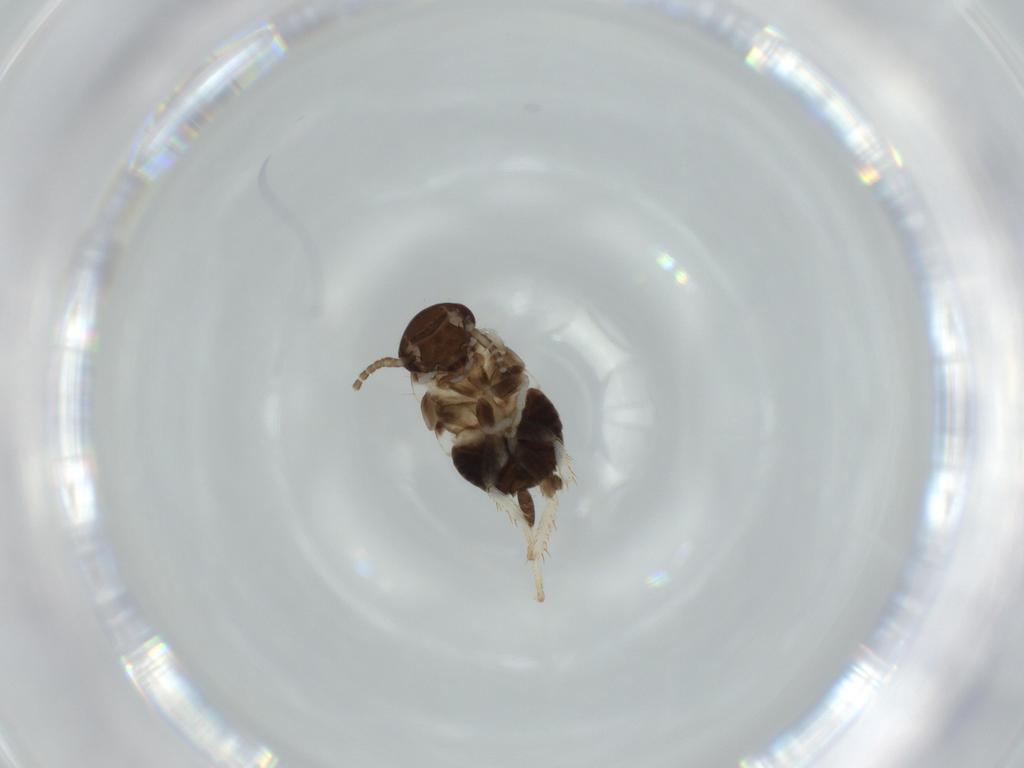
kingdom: Animalia
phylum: Arthropoda
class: Insecta
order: Blattodea
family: Ectobiidae
